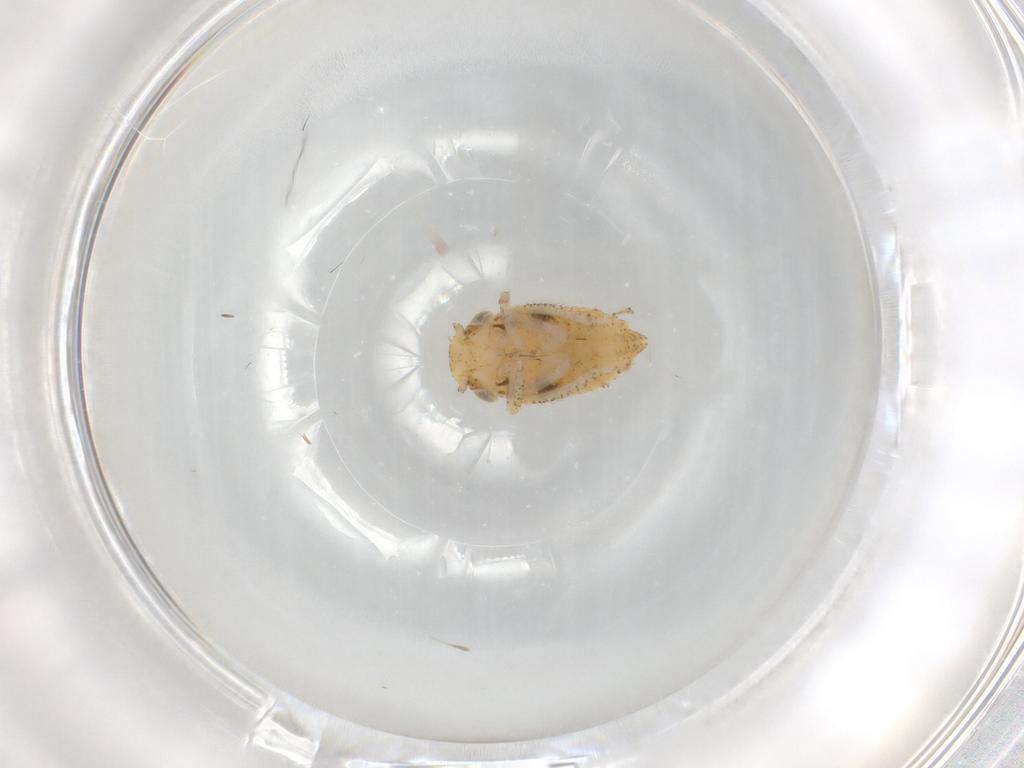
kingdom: Animalia
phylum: Arthropoda
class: Insecta
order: Hemiptera
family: Cicadellidae
